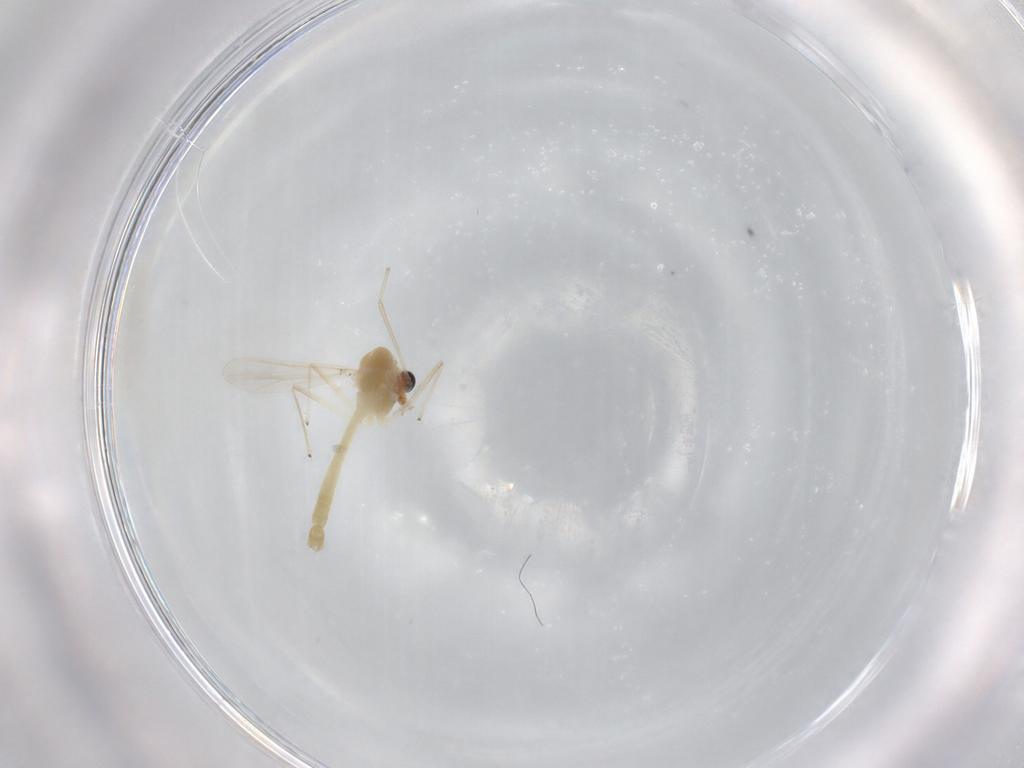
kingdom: Animalia
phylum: Arthropoda
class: Insecta
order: Diptera
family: Chironomidae
